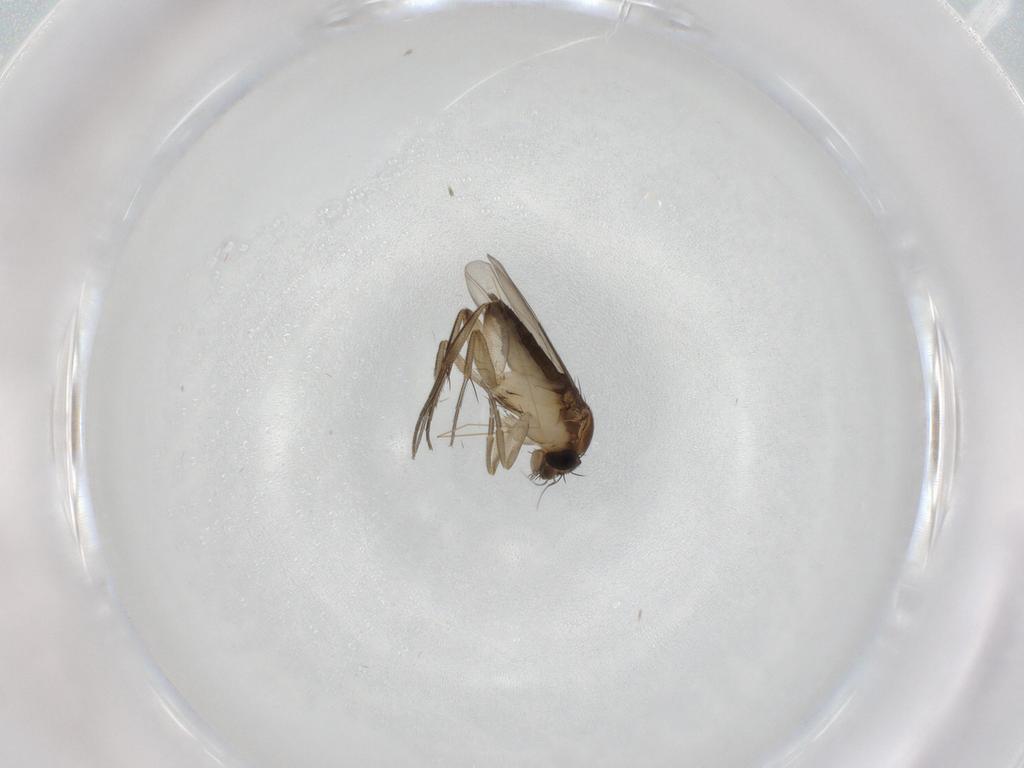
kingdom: Animalia
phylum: Arthropoda
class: Insecta
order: Diptera
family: Phoridae
